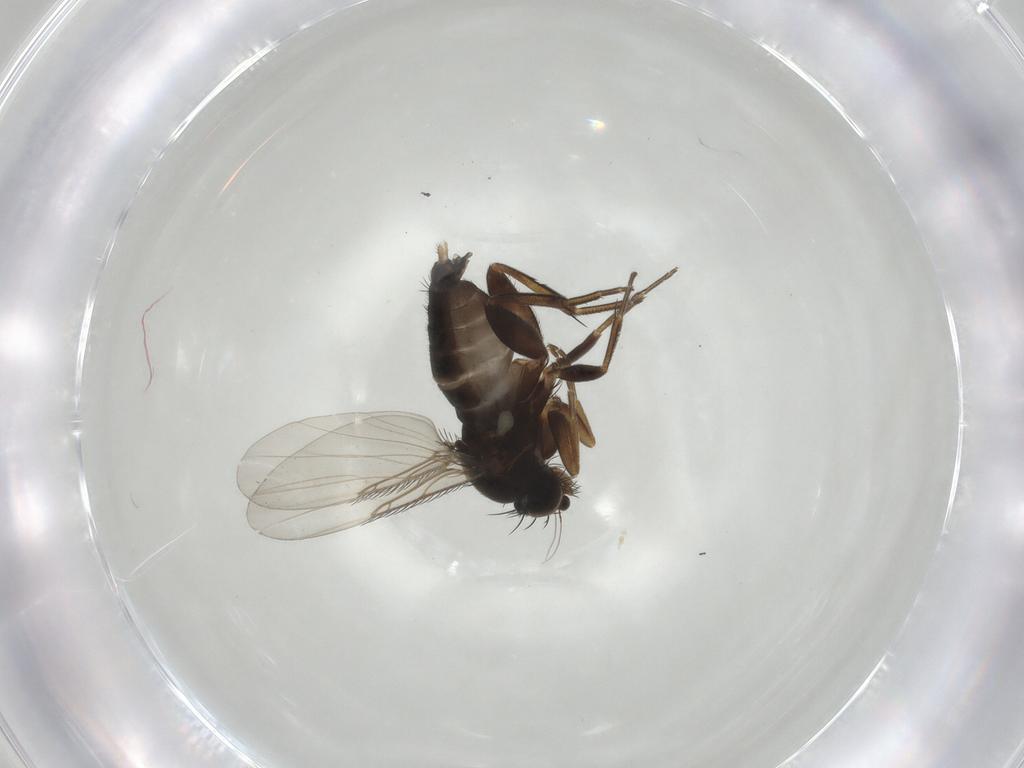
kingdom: Animalia
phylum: Arthropoda
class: Insecta
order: Diptera
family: Phoridae
